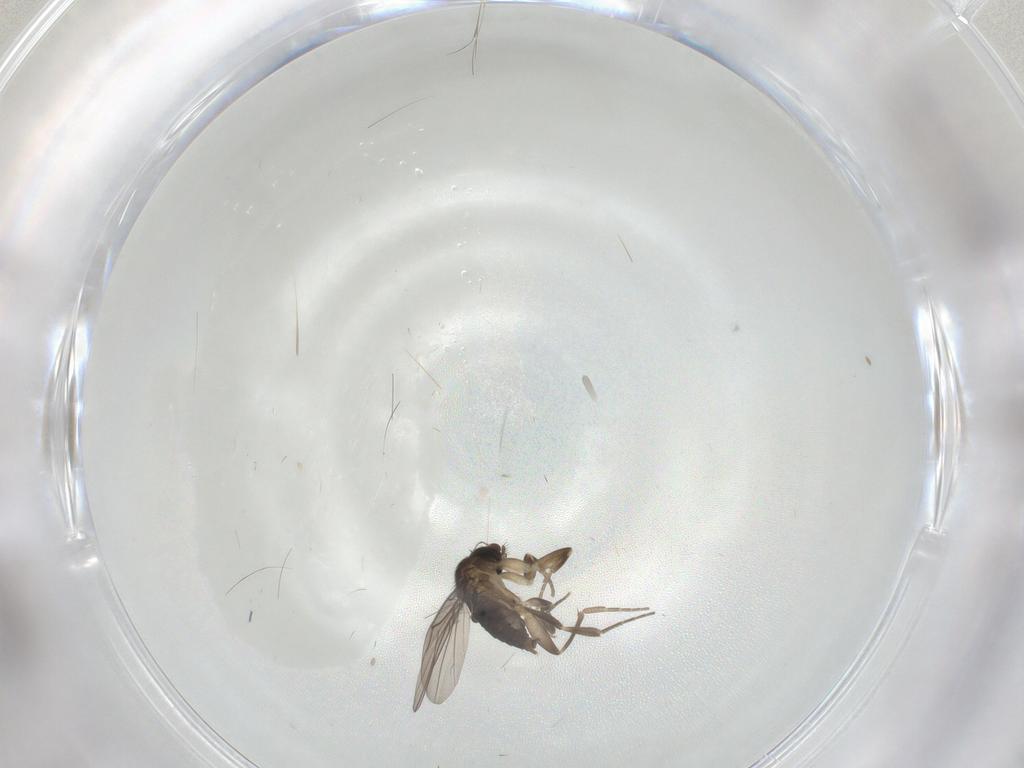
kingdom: Animalia
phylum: Arthropoda
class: Insecta
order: Diptera
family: Phoridae
